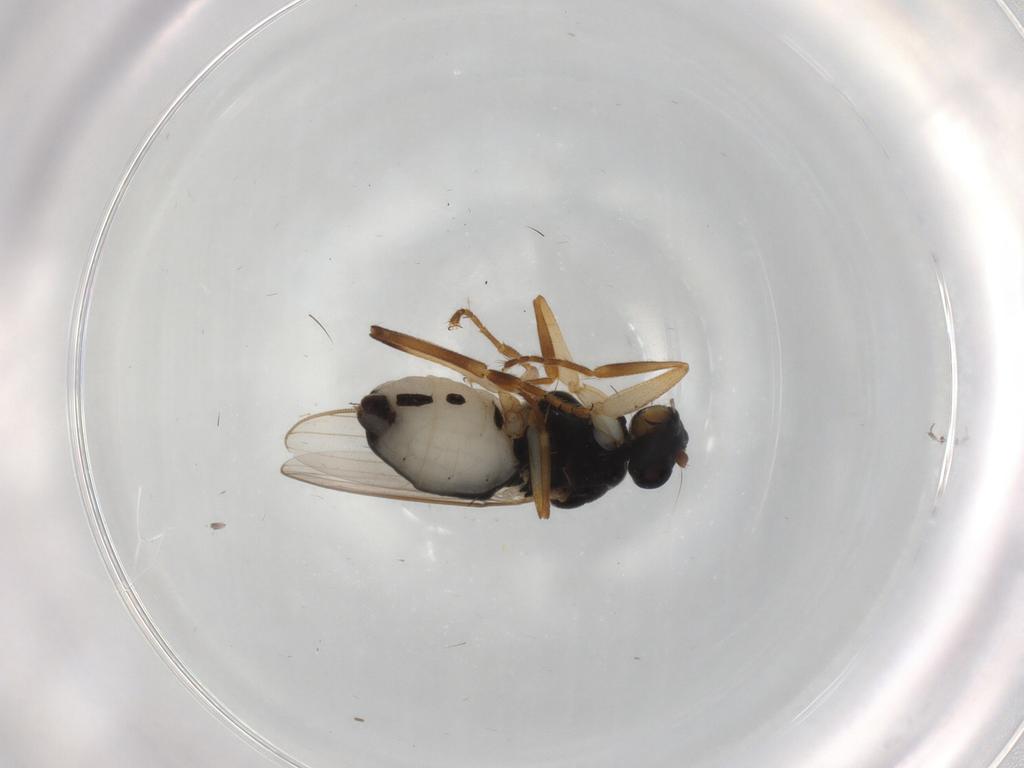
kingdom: Animalia
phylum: Arthropoda
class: Insecta
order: Diptera
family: Sphaeroceridae
